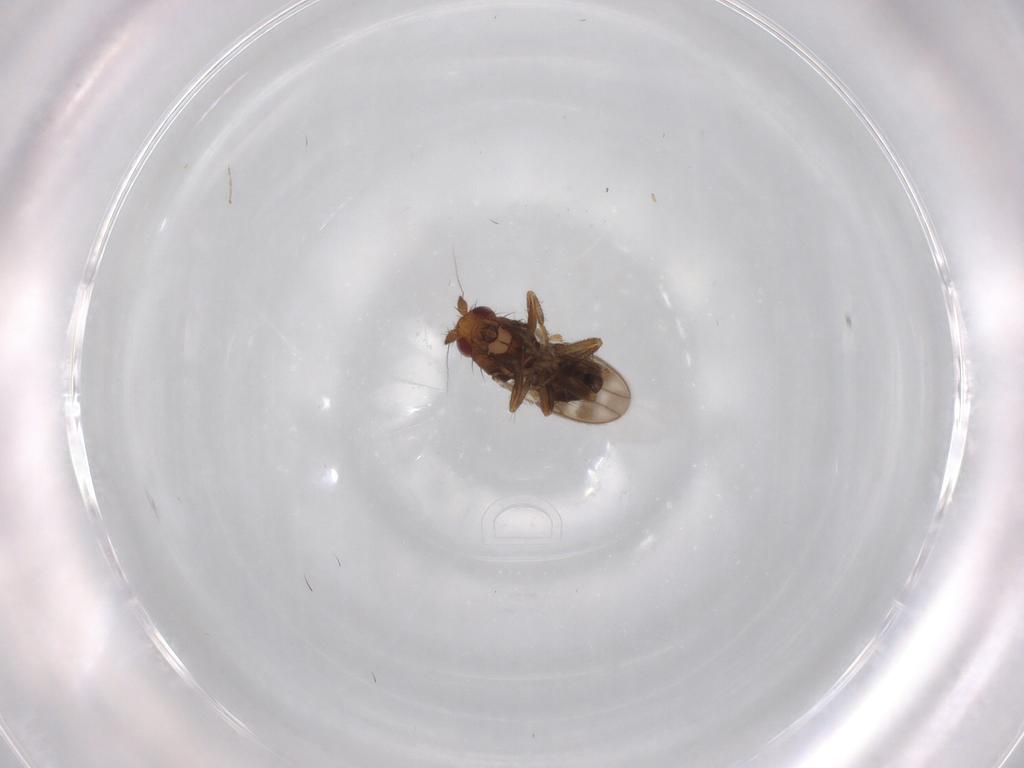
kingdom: Animalia
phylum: Arthropoda
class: Insecta
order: Diptera
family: Sphaeroceridae
